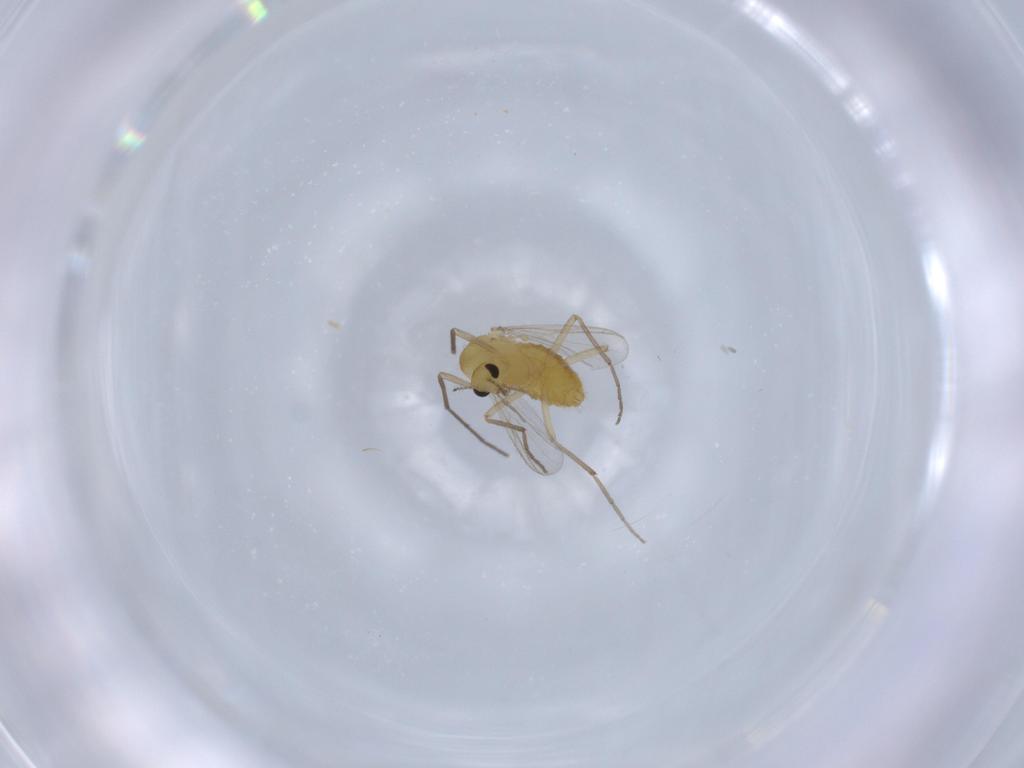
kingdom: Animalia
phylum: Arthropoda
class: Insecta
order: Diptera
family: Chironomidae
